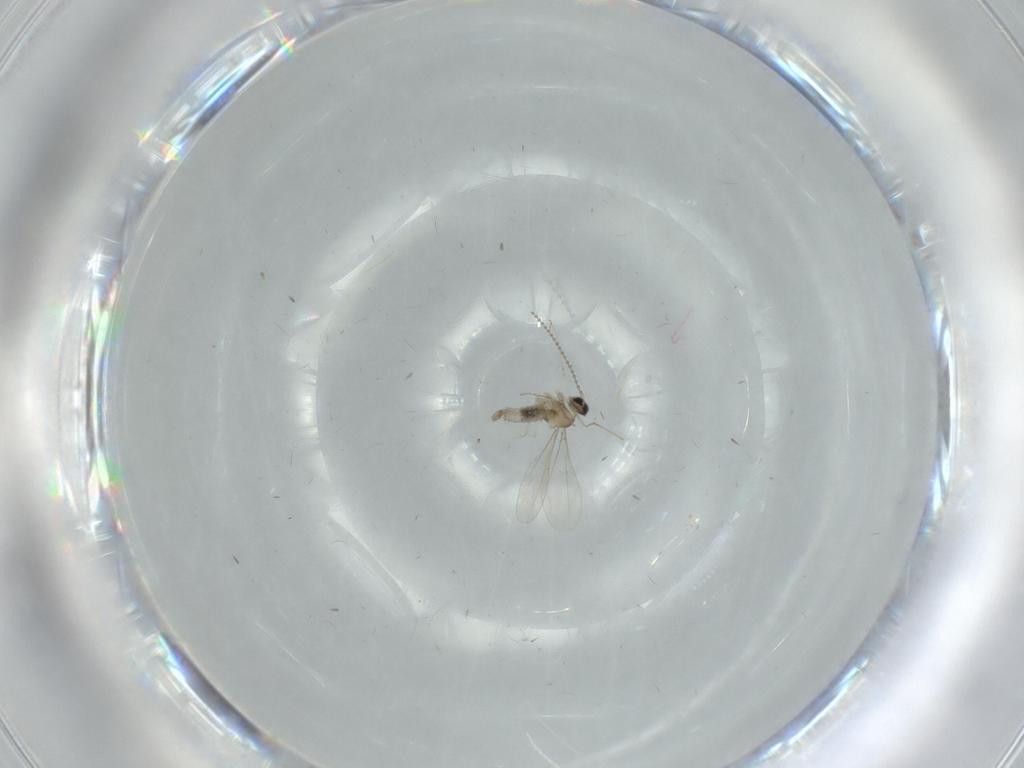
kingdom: Animalia
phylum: Arthropoda
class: Insecta
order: Diptera
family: Cecidomyiidae
